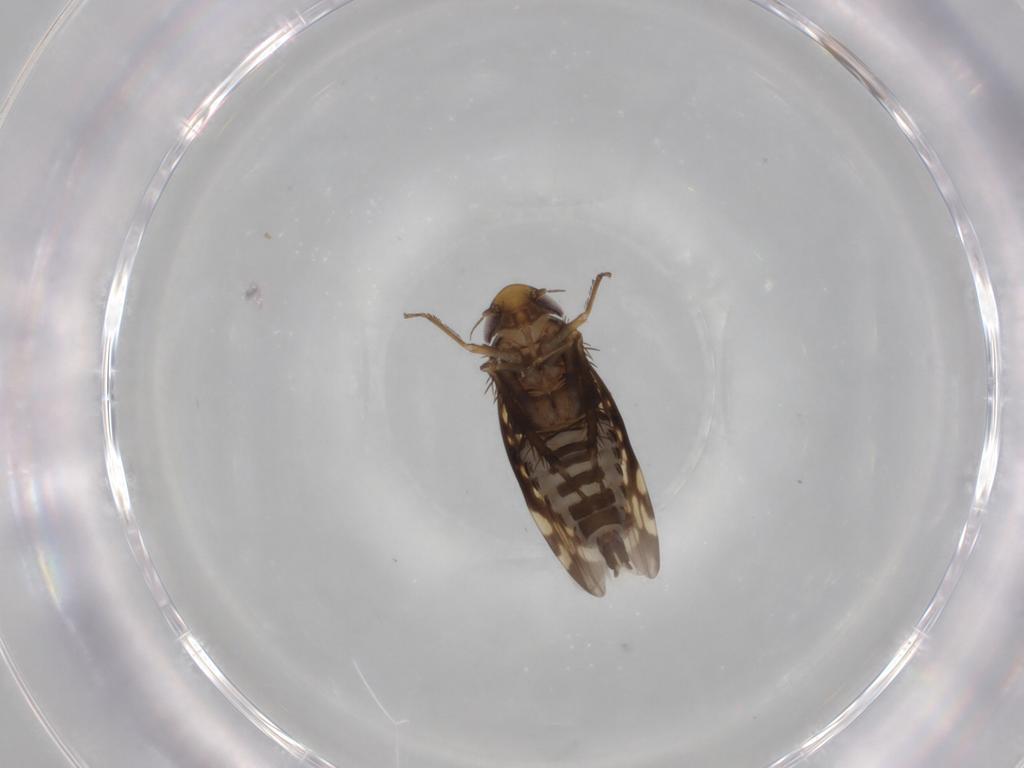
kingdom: Animalia
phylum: Arthropoda
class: Insecta
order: Hemiptera
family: Cicadellidae
